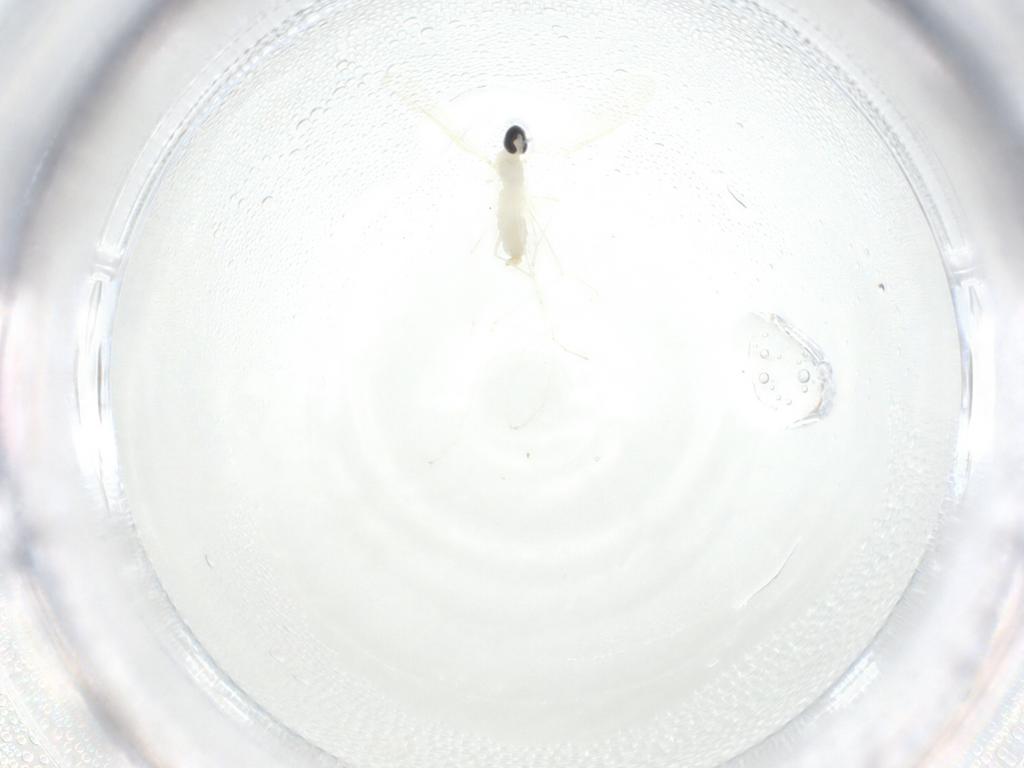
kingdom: Animalia
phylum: Arthropoda
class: Insecta
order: Diptera
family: Cecidomyiidae
